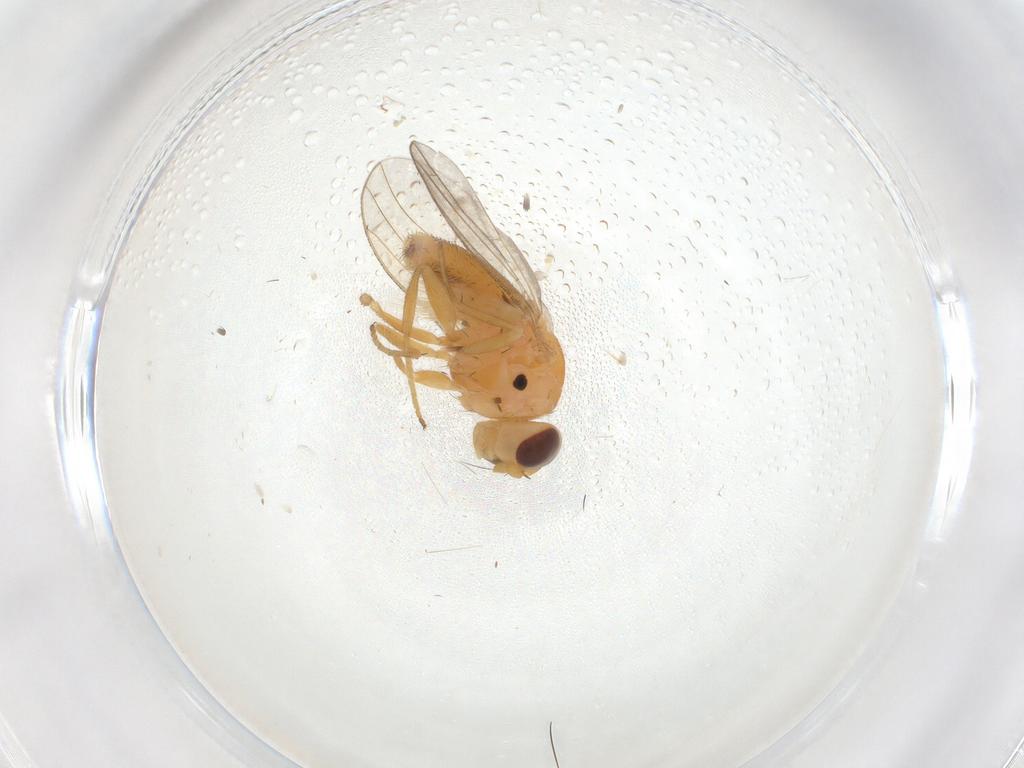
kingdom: Animalia
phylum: Arthropoda
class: Insecta
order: Diptera
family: Chloropidae
